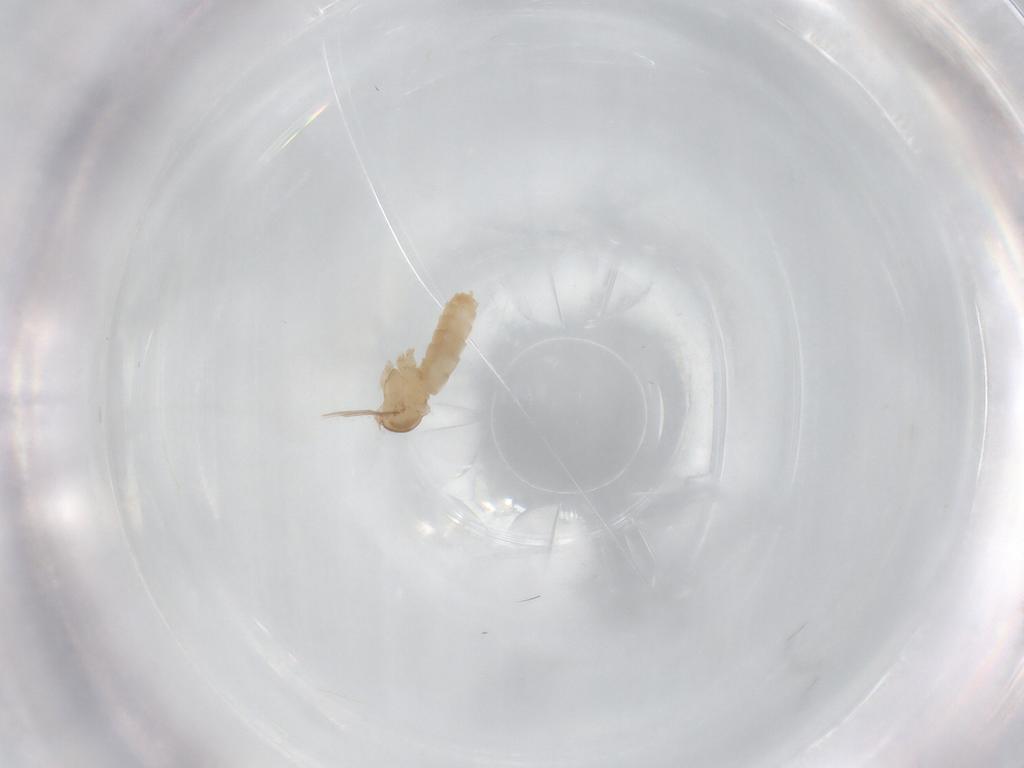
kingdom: Animalia
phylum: Arthropoda
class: Insecta
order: Diptera
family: Cecidomyiidae
